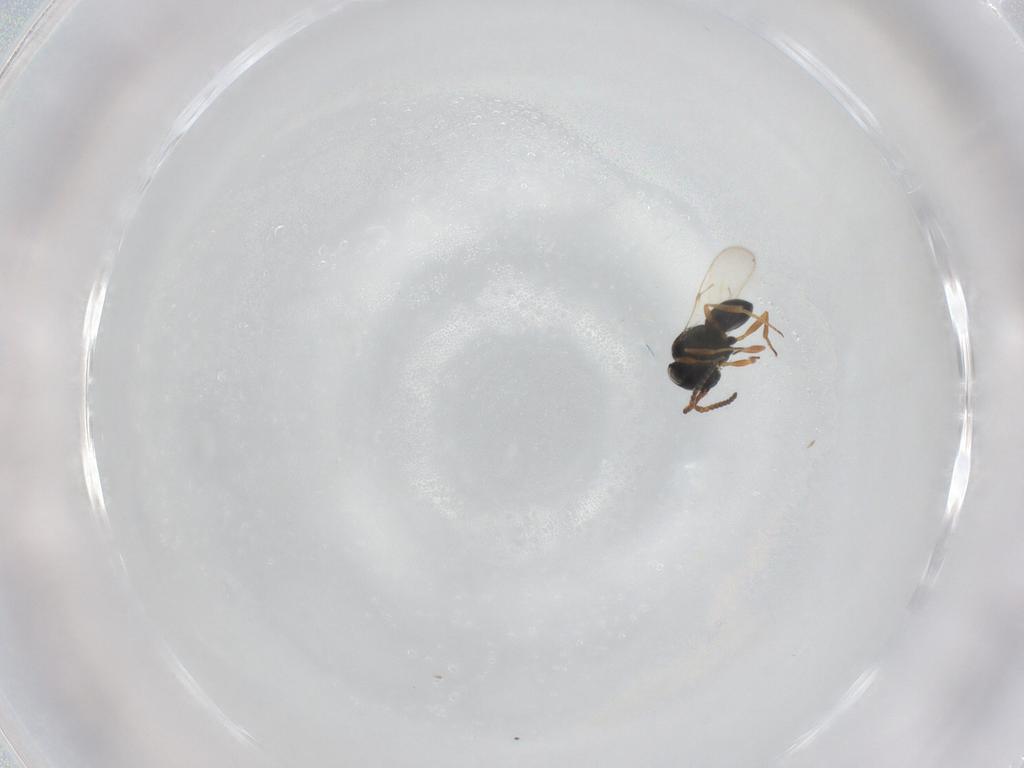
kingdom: Animalia
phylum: Arthropoda
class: Insecta
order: Hymenoptera
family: Scelionidae
